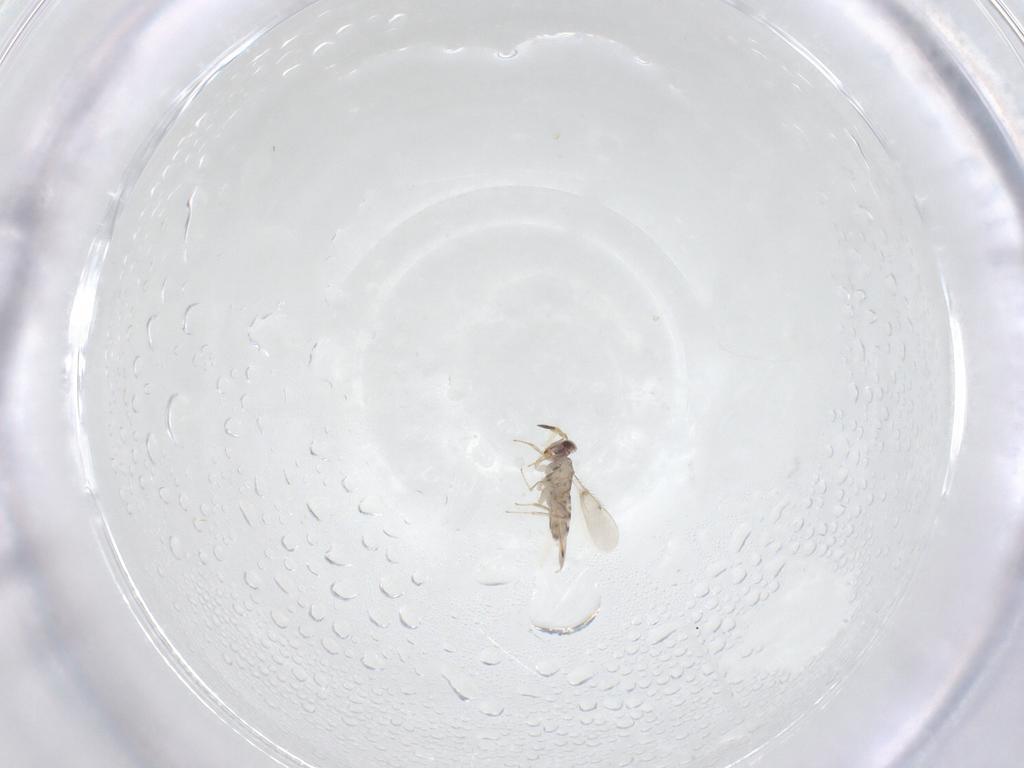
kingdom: Animalia
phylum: Arthropoda
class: Insecta
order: Hymenoptera
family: Aphelinidae
